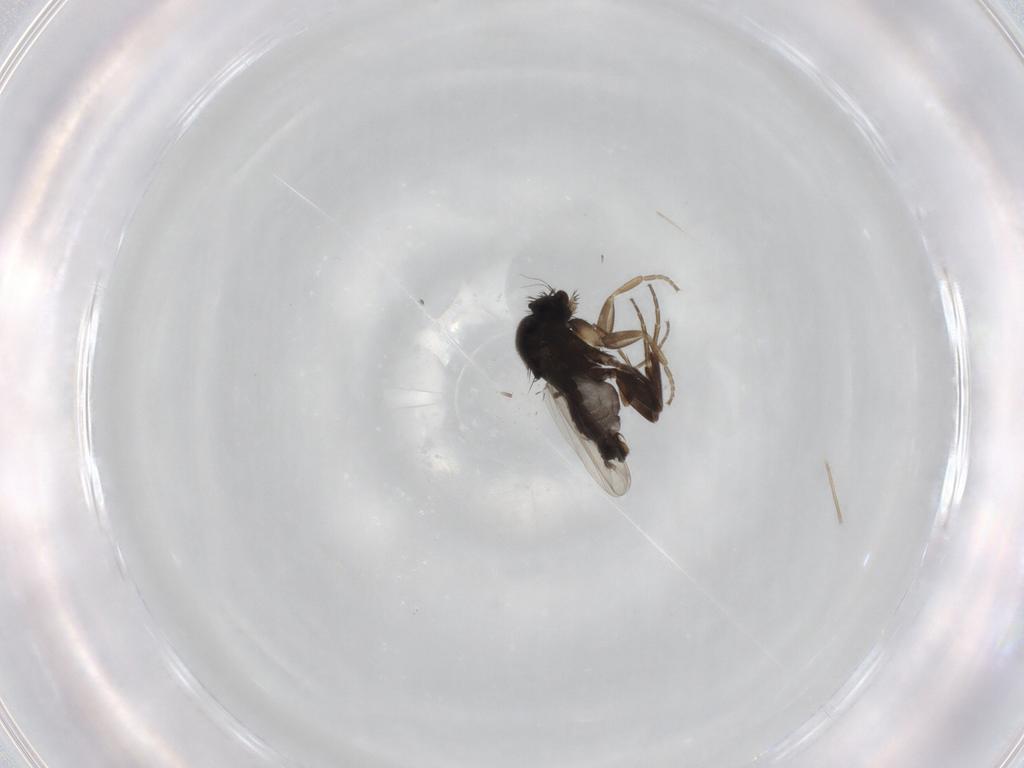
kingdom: Animalia
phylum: Arthropoda
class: Insecta
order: Diptera
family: Phoridae
